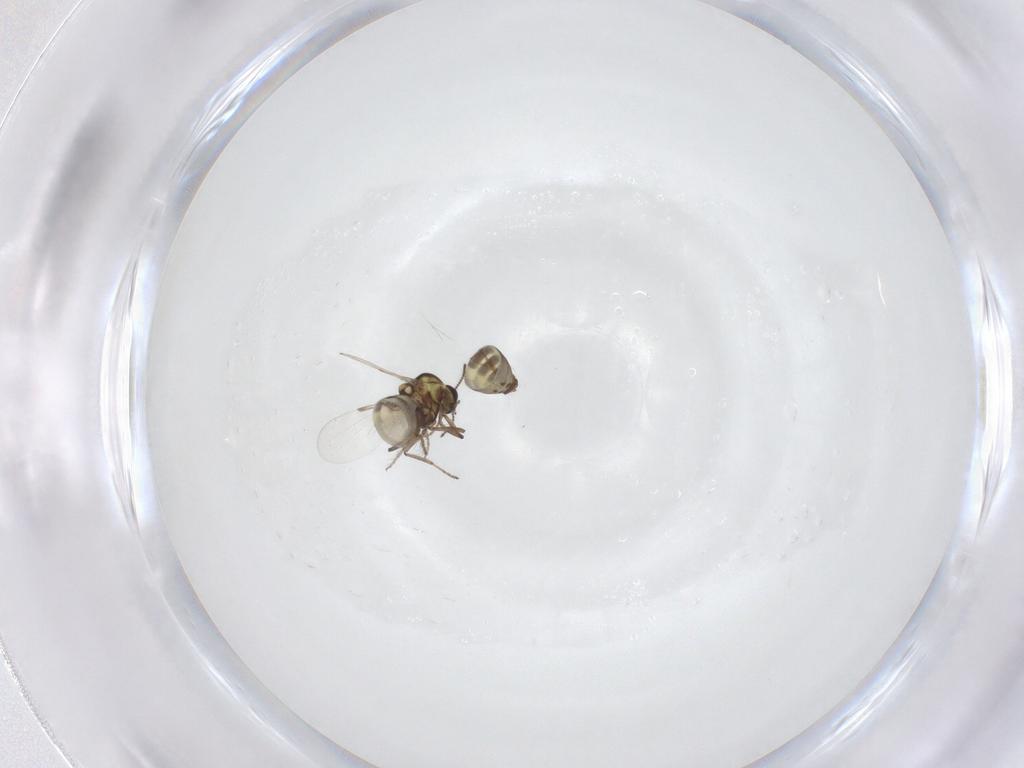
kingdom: Animalia
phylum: Arthropoda
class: Insecta
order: Diptera
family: Ceratopogonidae
